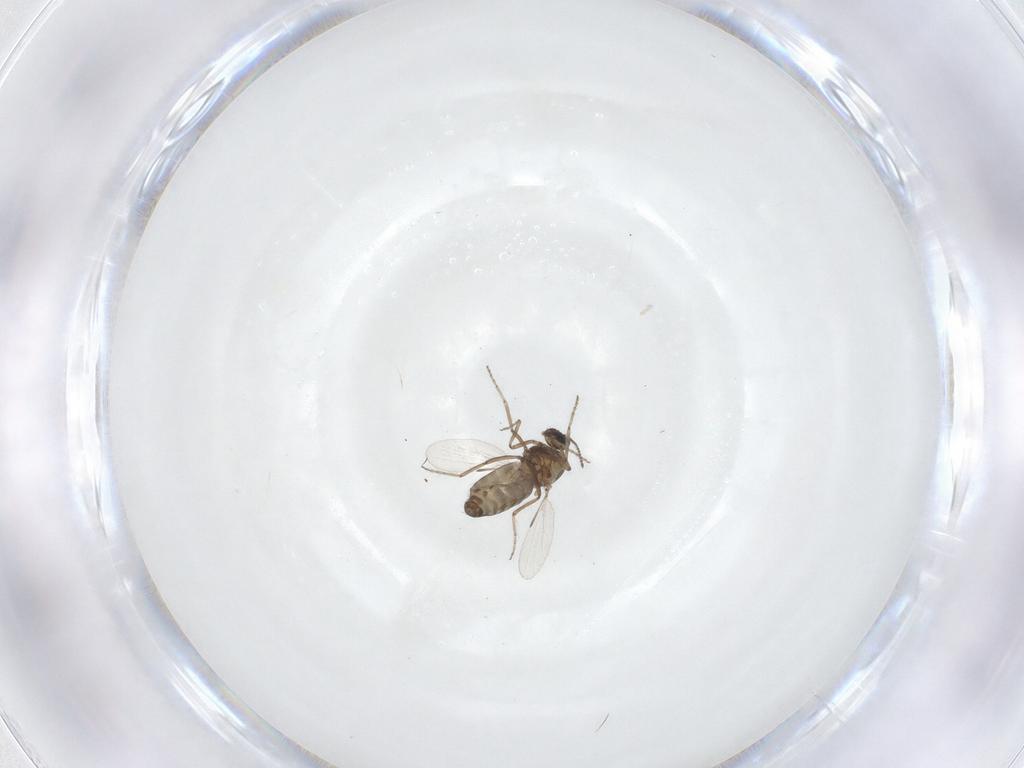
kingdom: Animalia
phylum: Arthropoda
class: Insecta
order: Diptera
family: Ceratopogonidae
